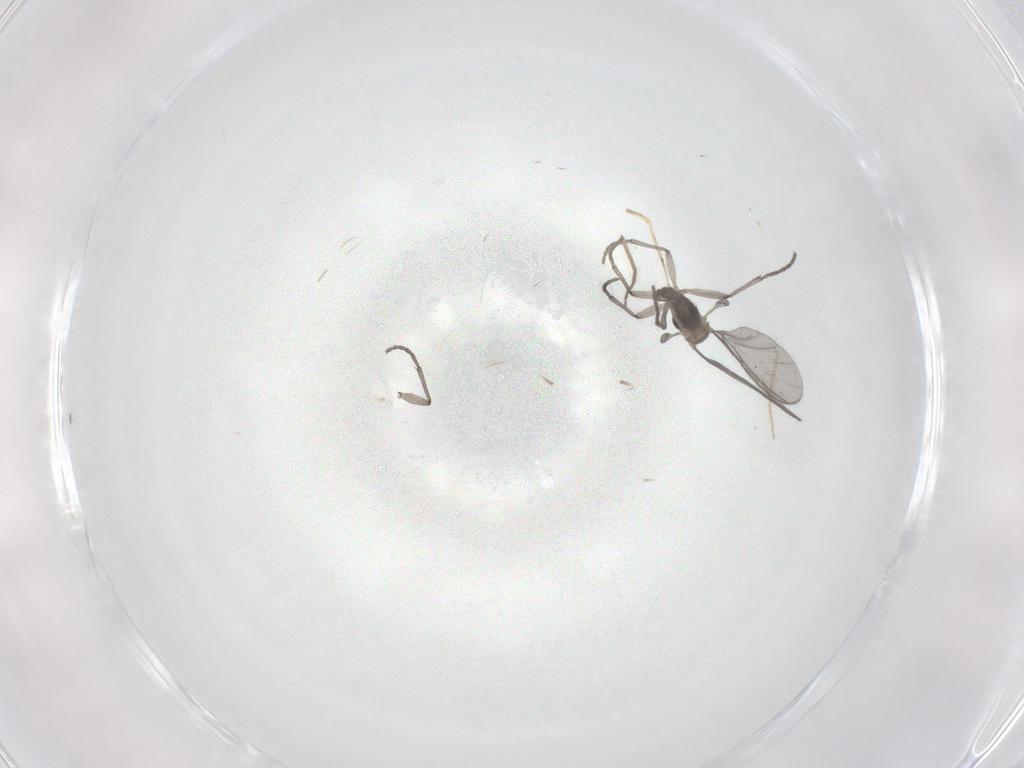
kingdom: Animalia
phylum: Arthropoda
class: Insecta
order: Diptera
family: Sciaridae
